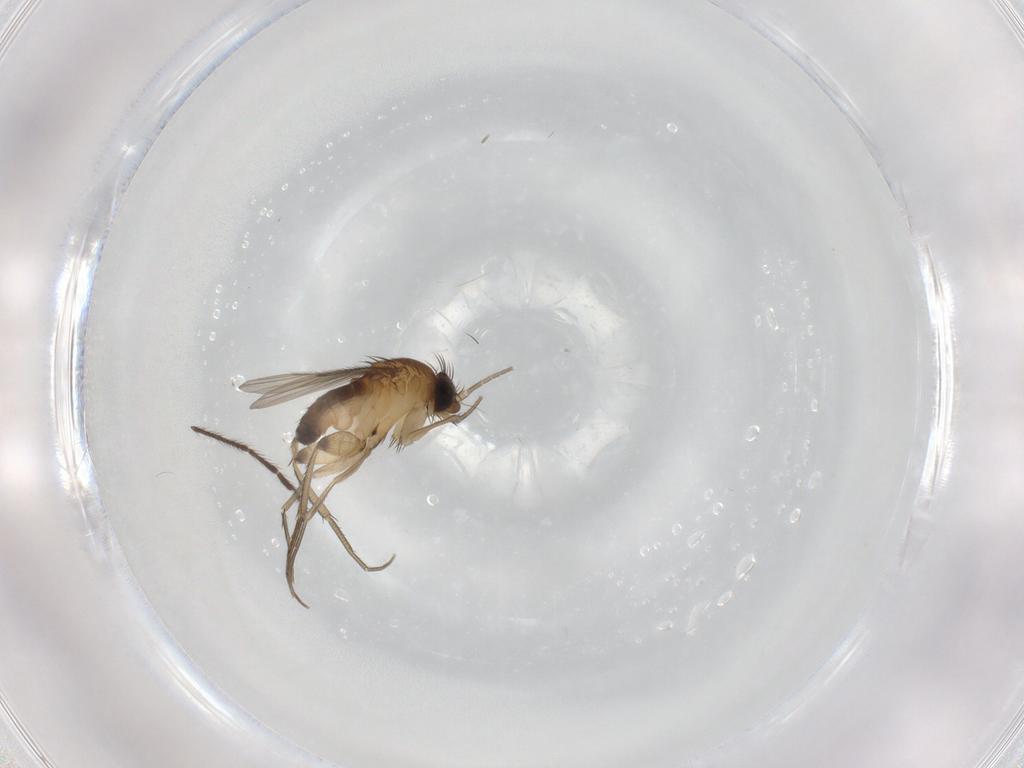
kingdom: Animalia
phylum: Arthropoda
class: Insecta
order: Diptera
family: Phoridae
